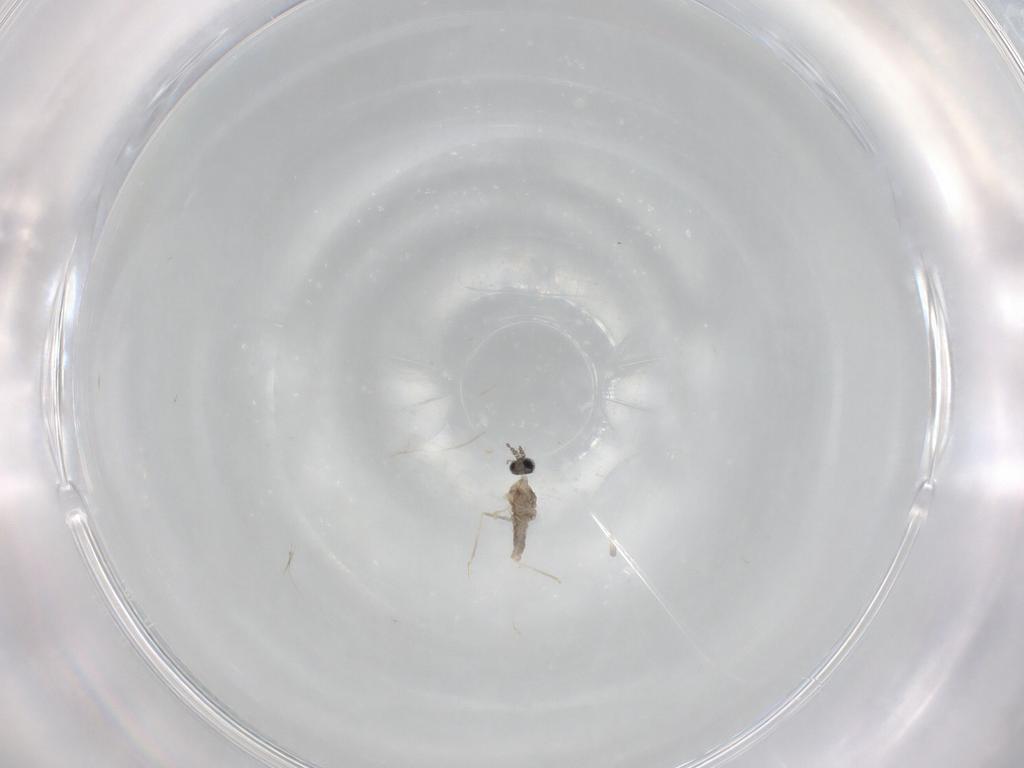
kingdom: Animalia
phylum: Arthropoda
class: Insecta
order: Diptera
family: Cecidomyiidae
